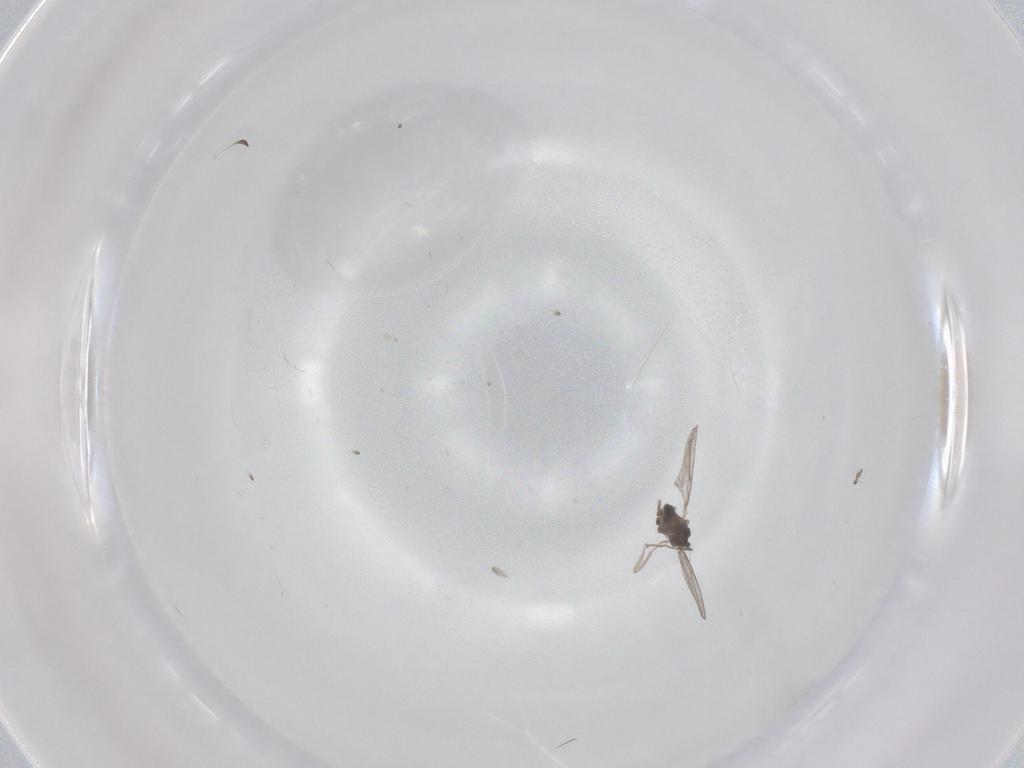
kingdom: Animalia
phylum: Arthropoda
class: Insecta
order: Diptera
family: Cecidomyiidae
